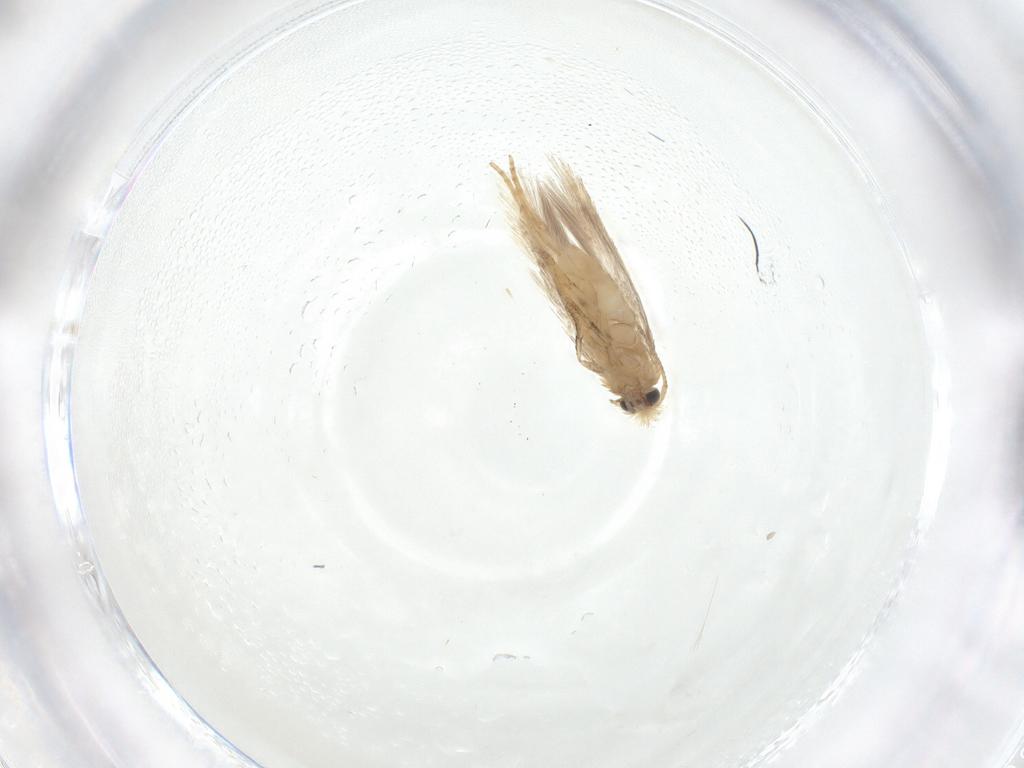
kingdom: Animalia
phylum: Arthropoda
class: Insecta
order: Lepidoptera
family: Nepticulidae
